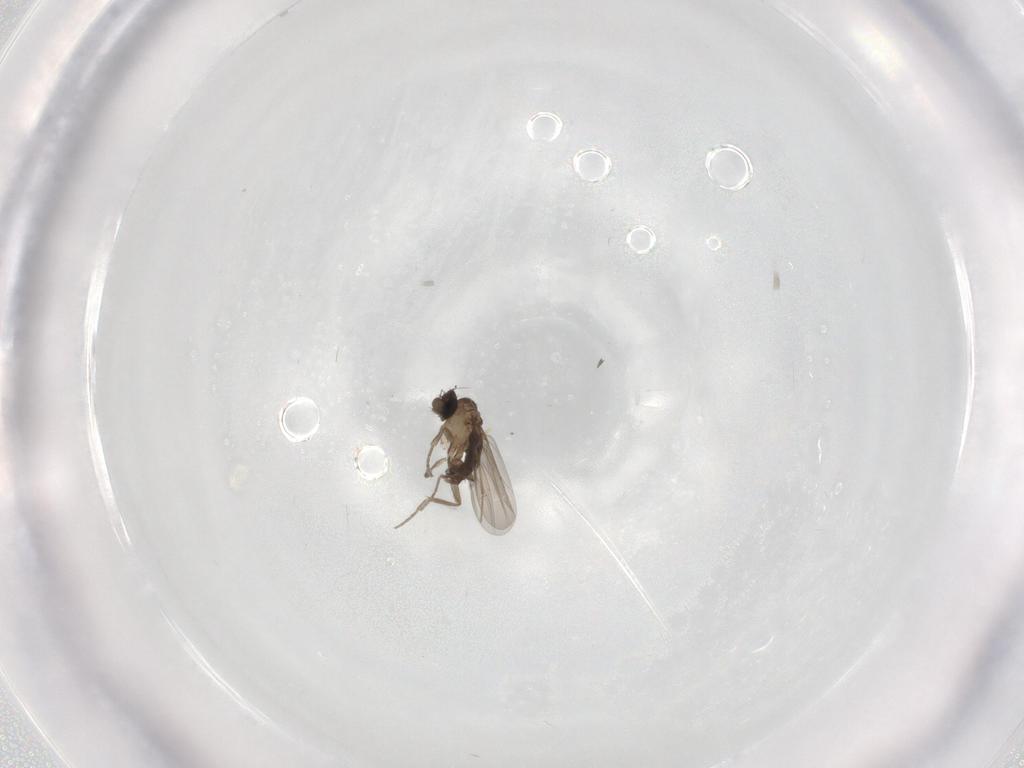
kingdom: Animalia
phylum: Arthropoda
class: Insecta
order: Diptera
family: Chironomidae
